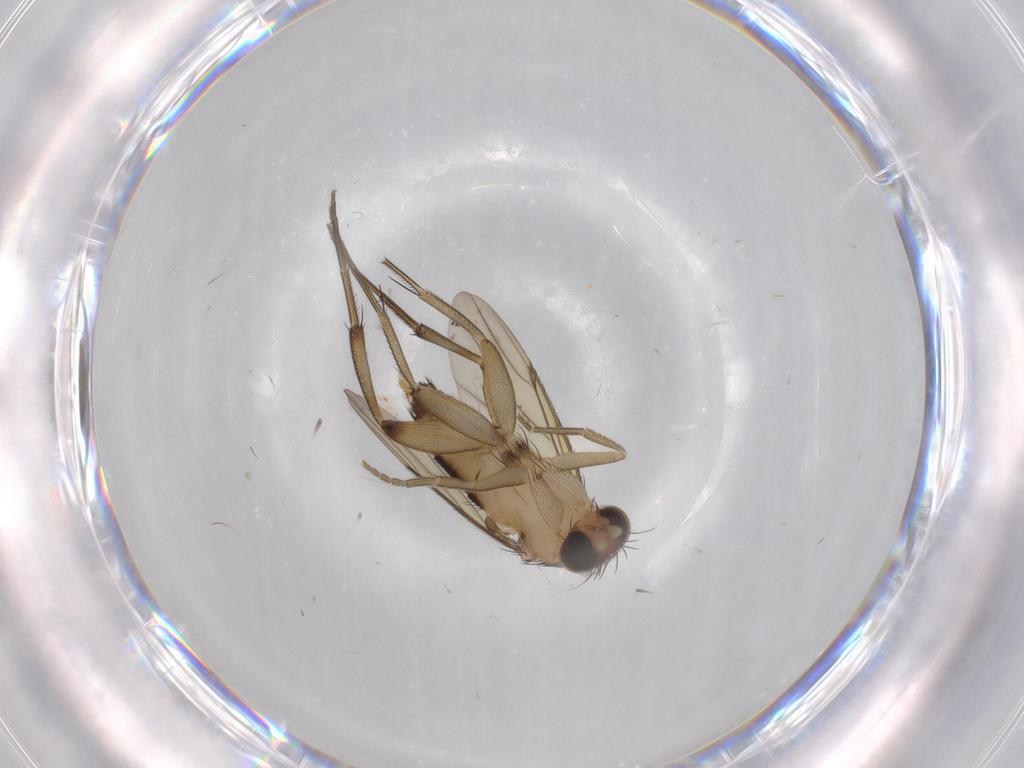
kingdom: Animalia
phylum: Arthropoda
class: Insecta
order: Diptera
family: Phoridae
